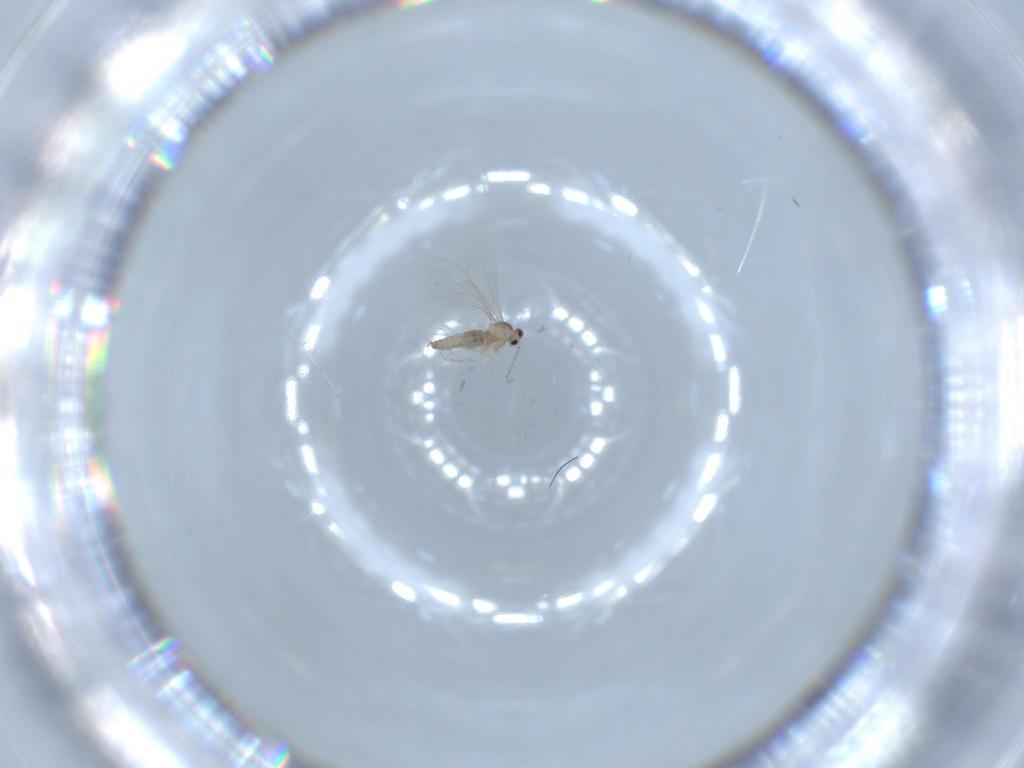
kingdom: Animalia
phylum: Arthropoda
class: Insecta
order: Diptera
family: Cecidomyiidae
